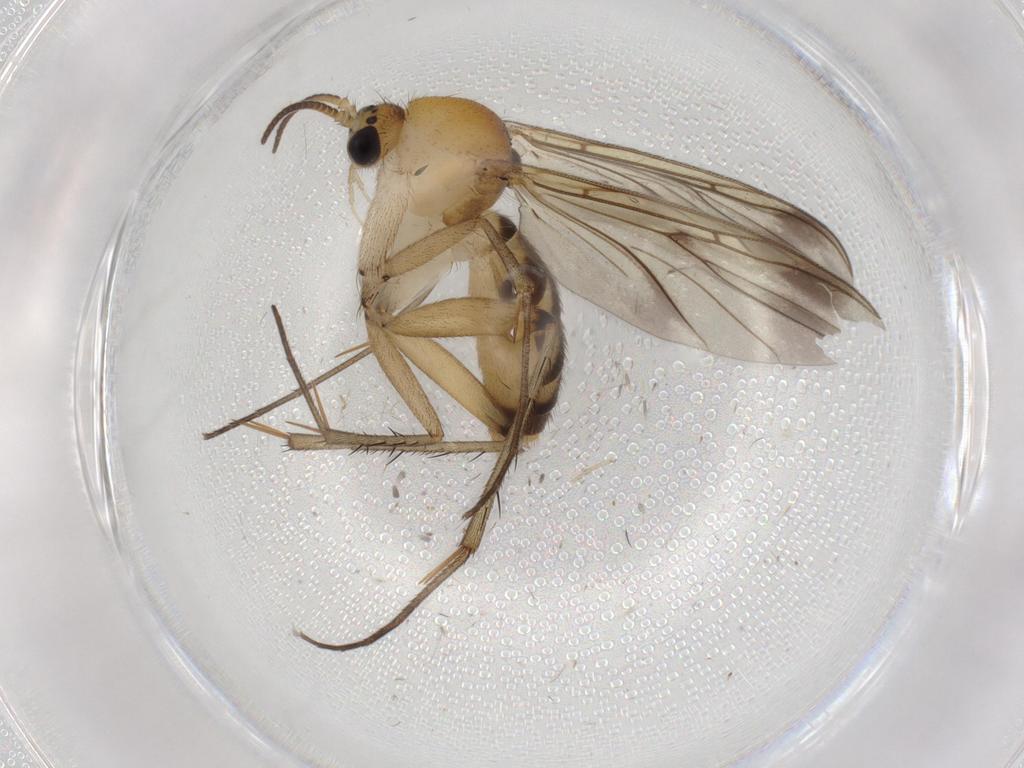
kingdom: Animalia
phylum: Arthropoda
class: Insecta
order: Diptera
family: Mycetophilidae
